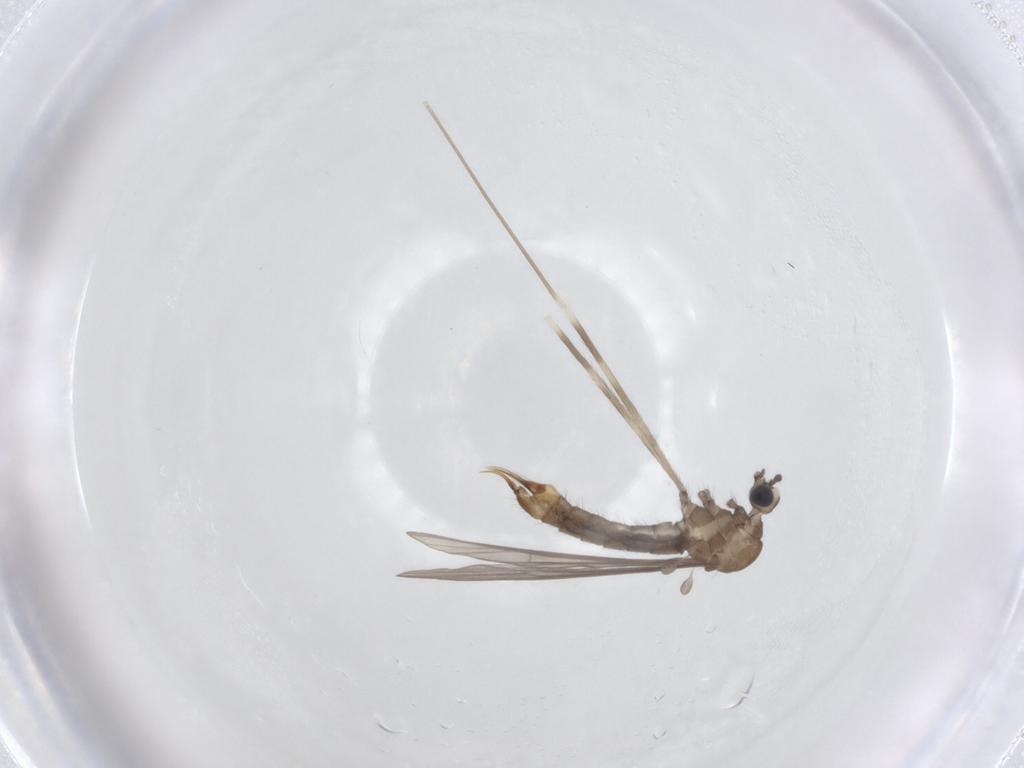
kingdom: Animalia
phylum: Arthropoda
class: Insecta
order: Diptera
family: Limoniidae
